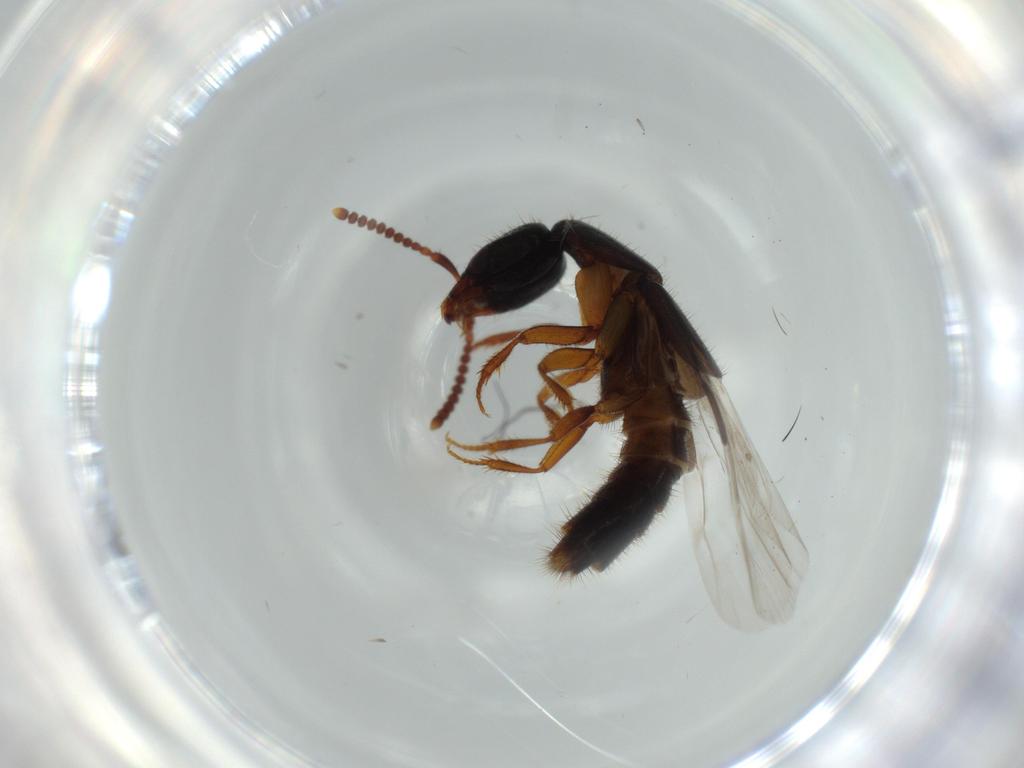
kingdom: Animalia
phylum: Arthropoda
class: Insecta
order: Coleoptera
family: Staphylinidae
